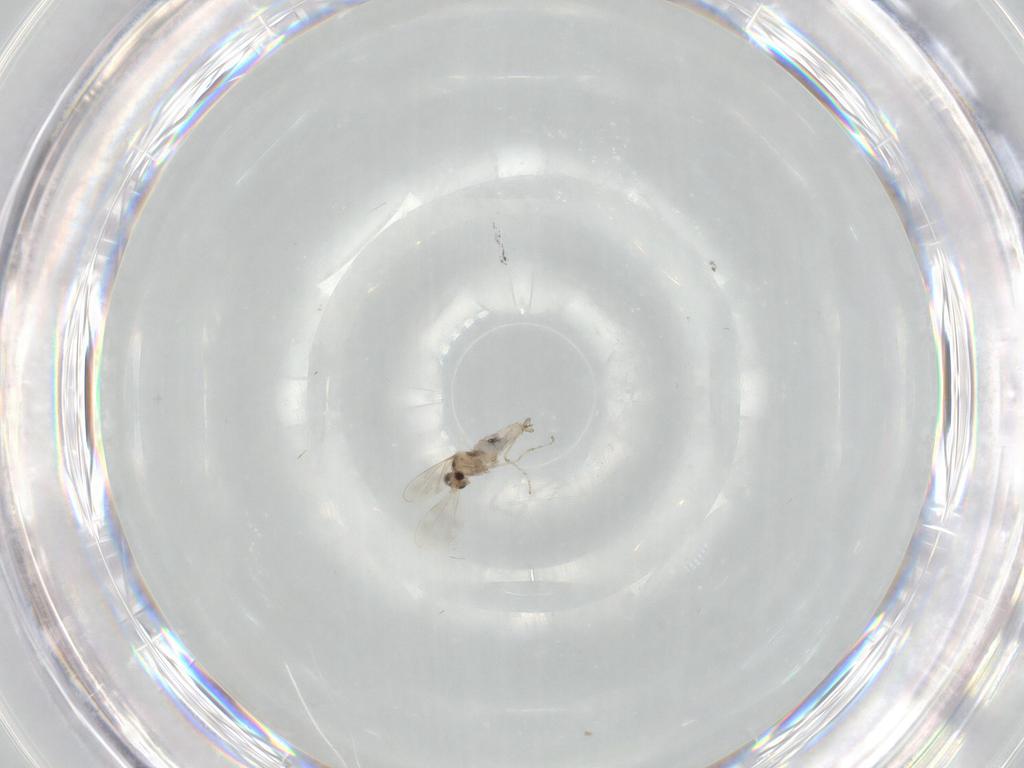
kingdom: Animalia
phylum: Arthropoda
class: Insecta
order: Diptera
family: Cecidomyiidae
